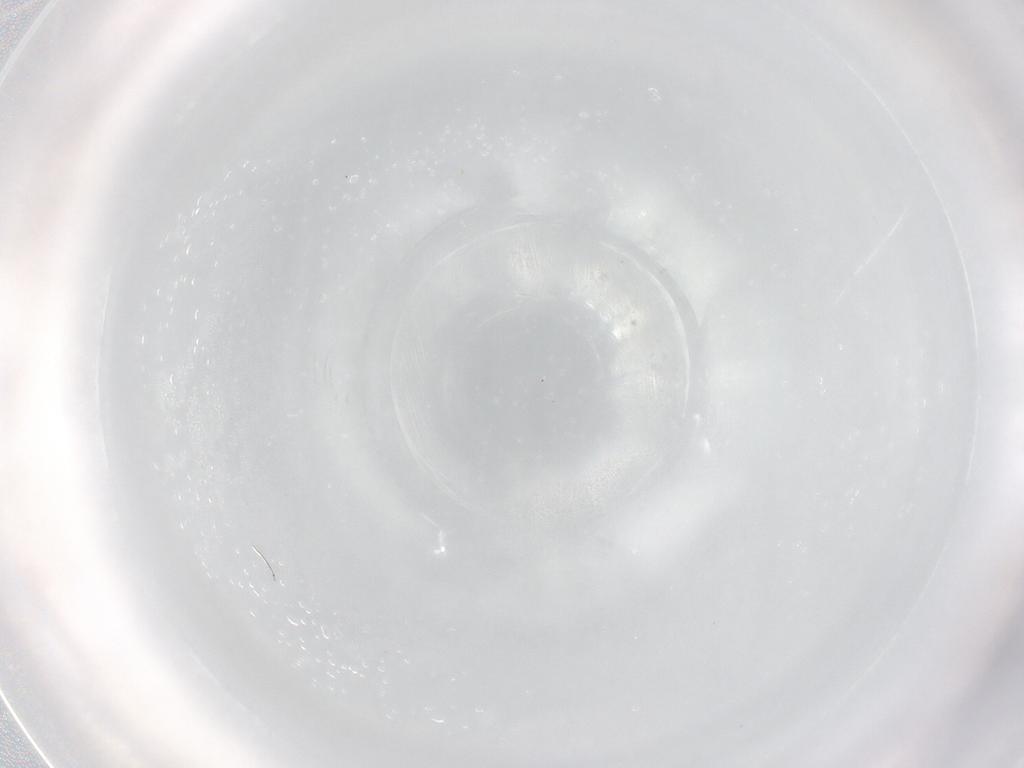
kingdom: Animalia
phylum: Arthropoda
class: Insecta
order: Diptera
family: Ceratopogonidae
